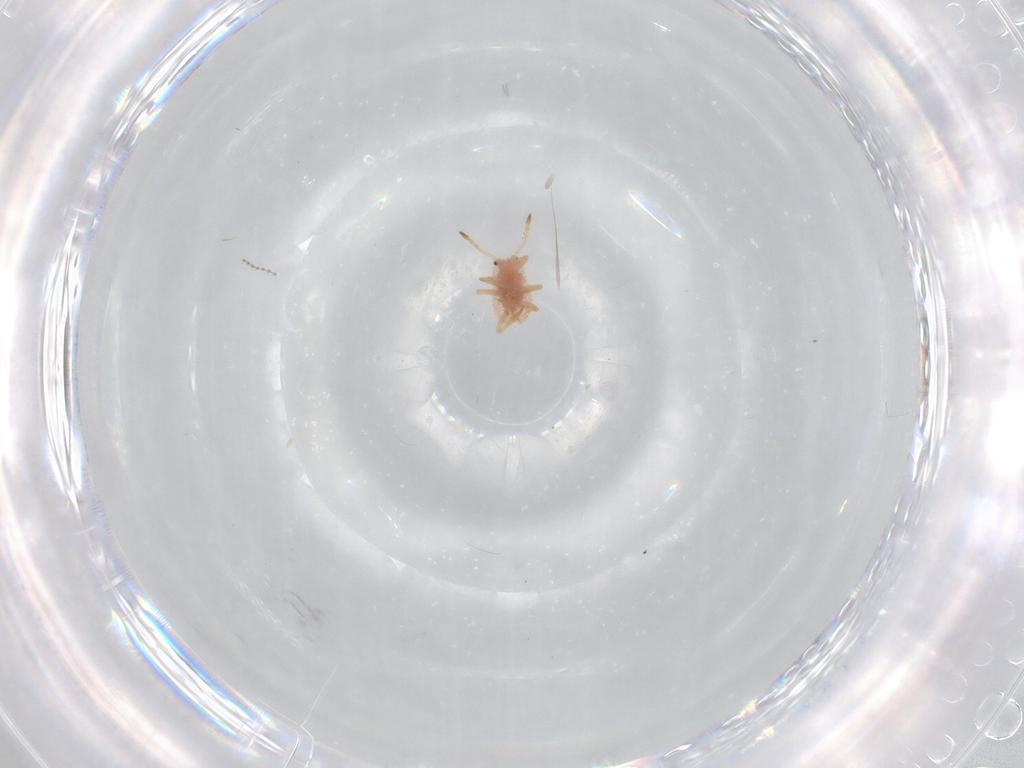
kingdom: Animalia
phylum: Arthropoda
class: Insecta
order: Hemiptera
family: Coccoidea_incertae_sedis
